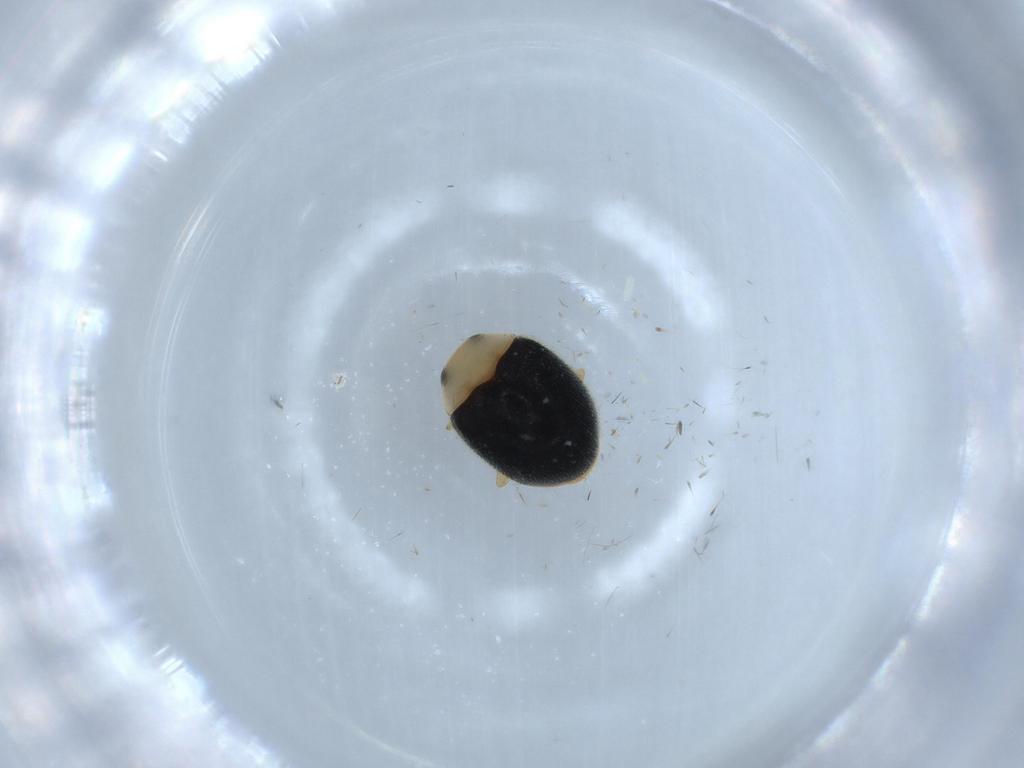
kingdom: Animalia
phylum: Arthropoda
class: Insecta
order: Coleoptera
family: Coccinellidae
